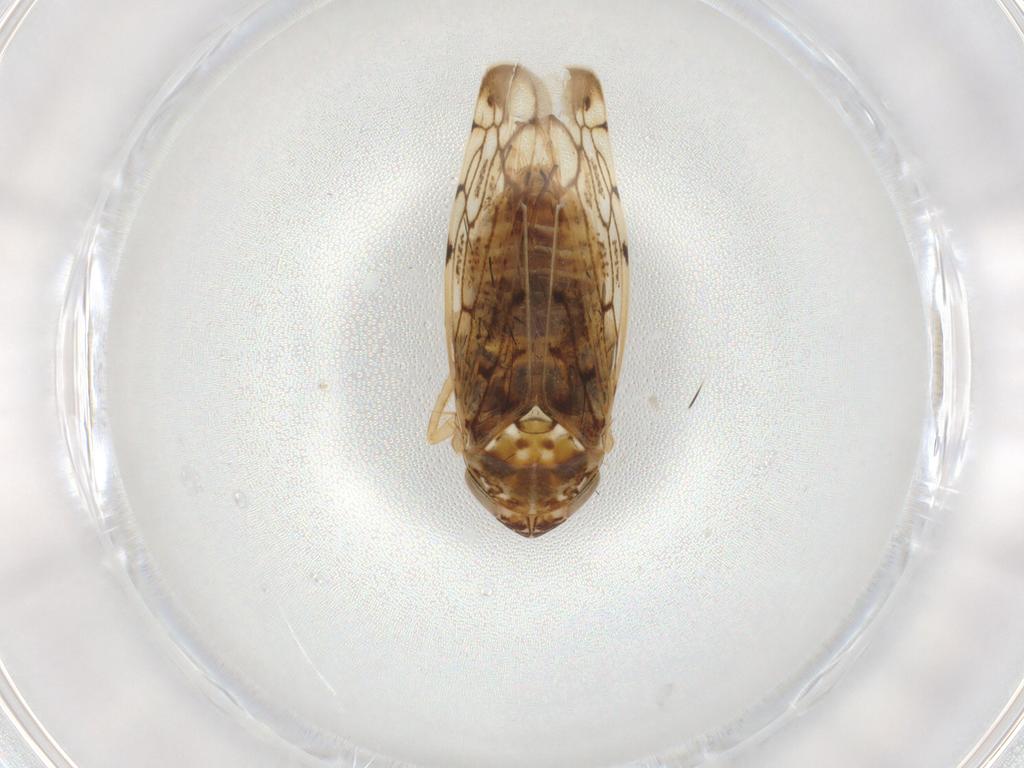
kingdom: Animalia
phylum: Arthropoda
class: Insecta
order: Hemiptera
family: Cicadellidae
